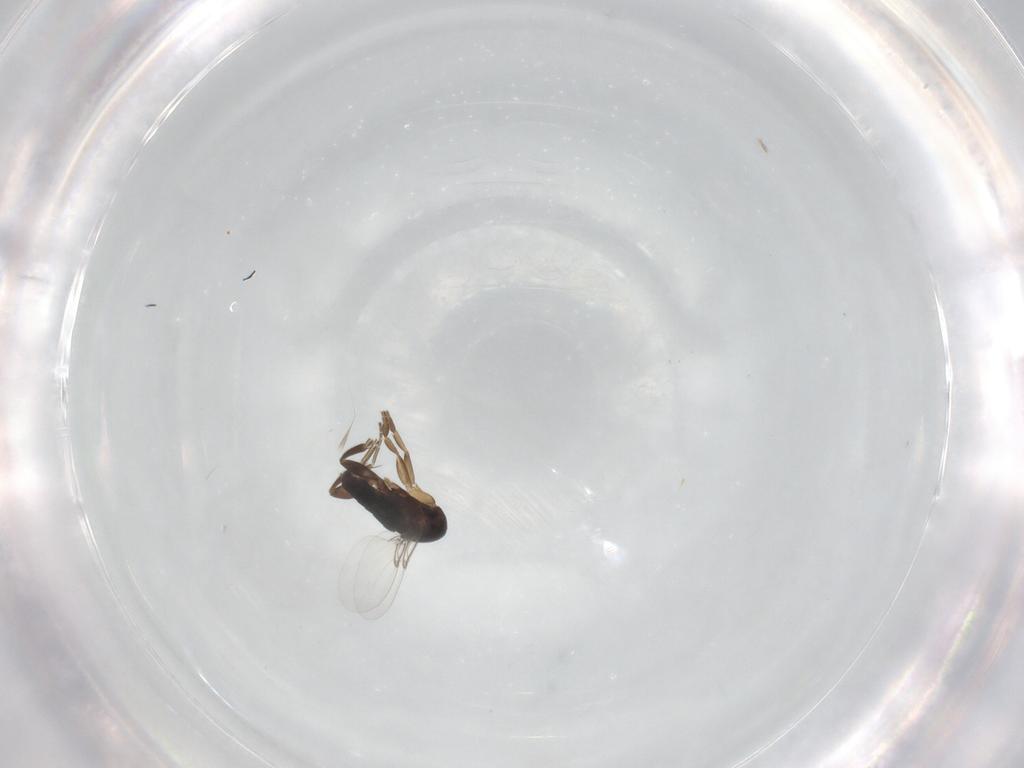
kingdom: Animalia
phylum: Arthropoda
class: Insecta
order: Diptera
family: Phoridae
